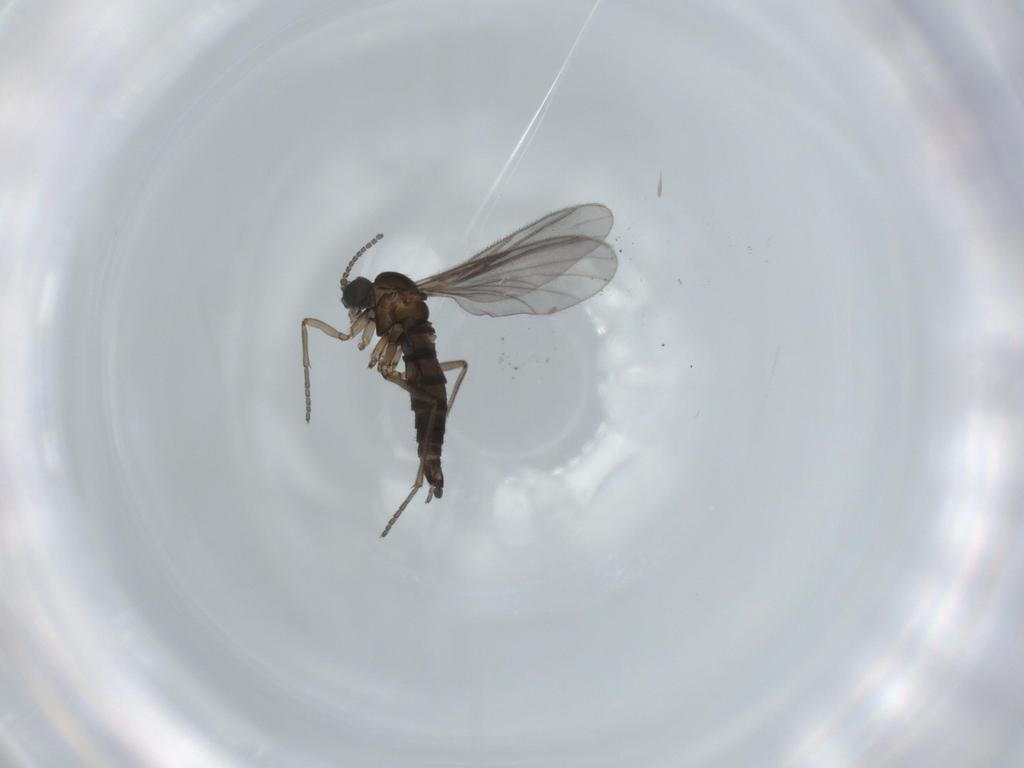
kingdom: Animalia
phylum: Arthropoda
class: Insecta
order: Diptera
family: Sciaridae
